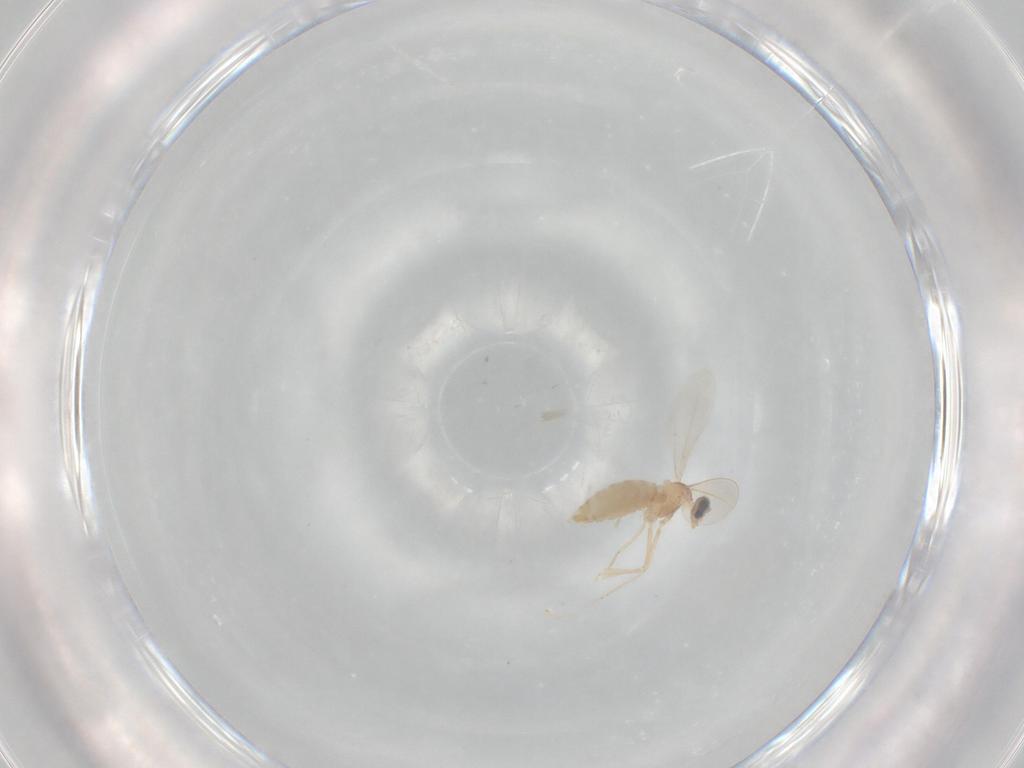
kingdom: Animalia
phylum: Arthropoda
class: Insecta
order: Diptera
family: Cecidomyiidae
